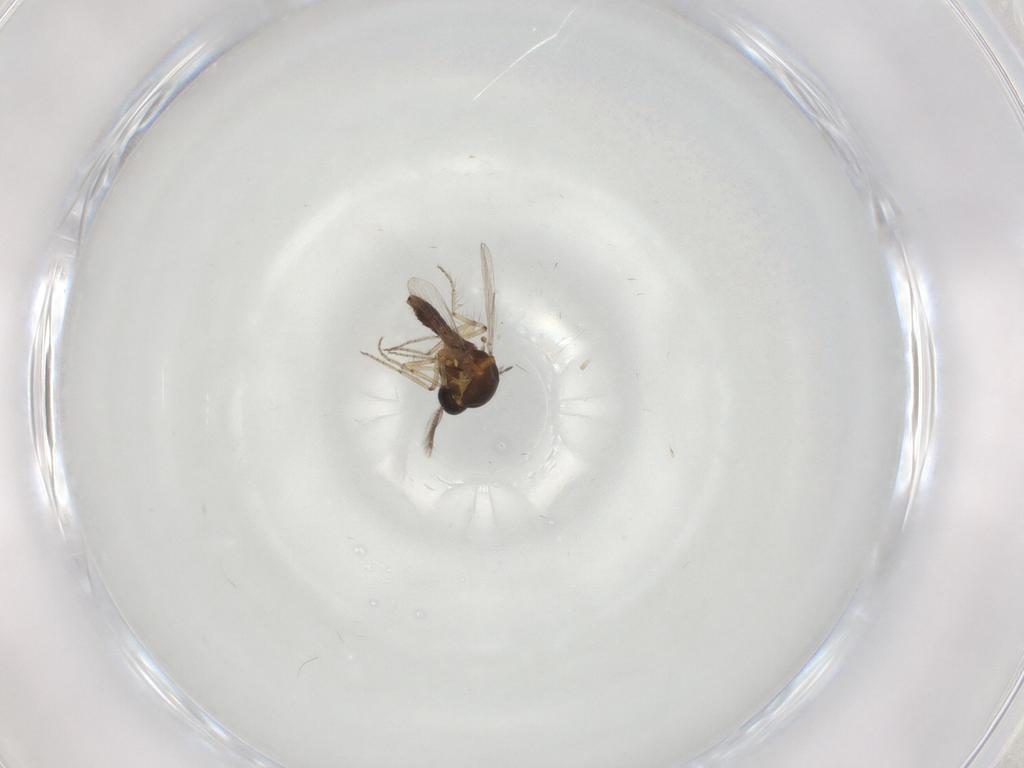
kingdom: Animalia
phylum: Arthropoda
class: Insecta
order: Diptera
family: Ceratopogonidae
